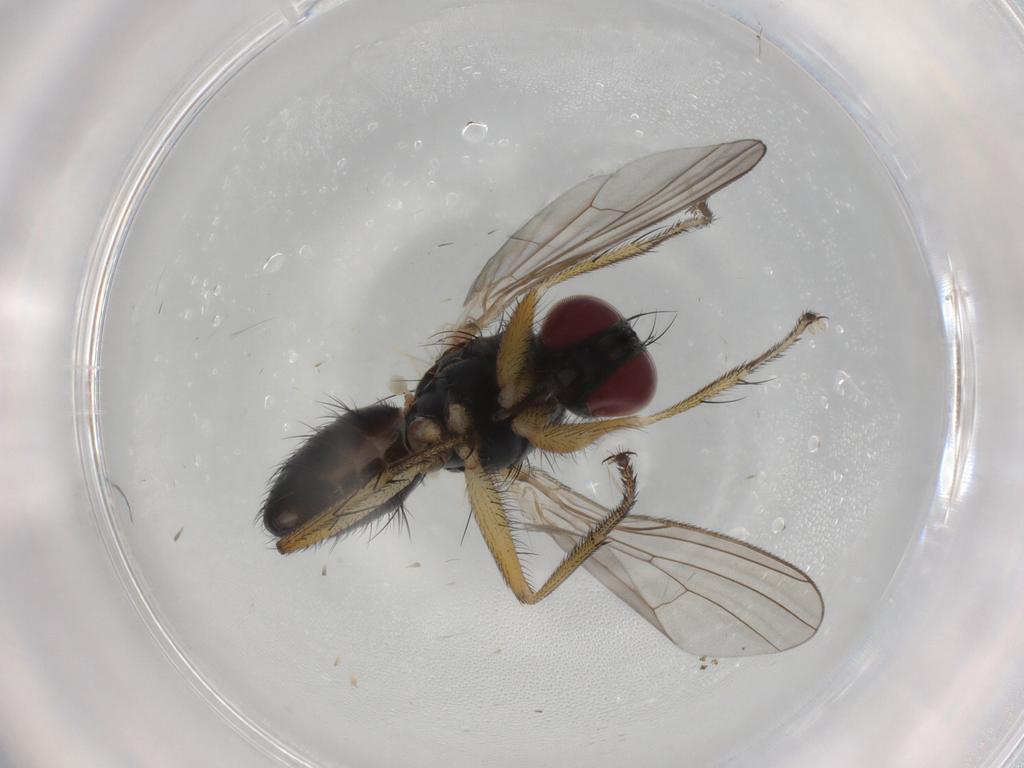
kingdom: Animalia
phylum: Arthropoda
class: Insecta
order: Diptera
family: Muscidae
